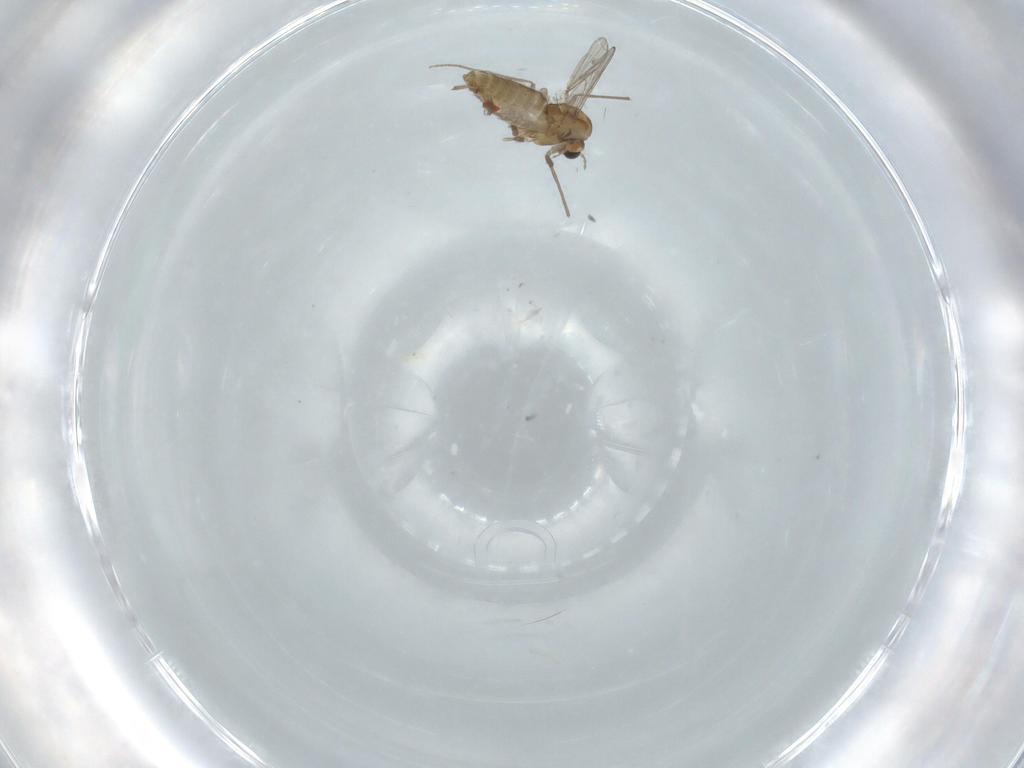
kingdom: Animalia
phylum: Arthropoda
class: Insecta
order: Diptera
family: Chironomidae
